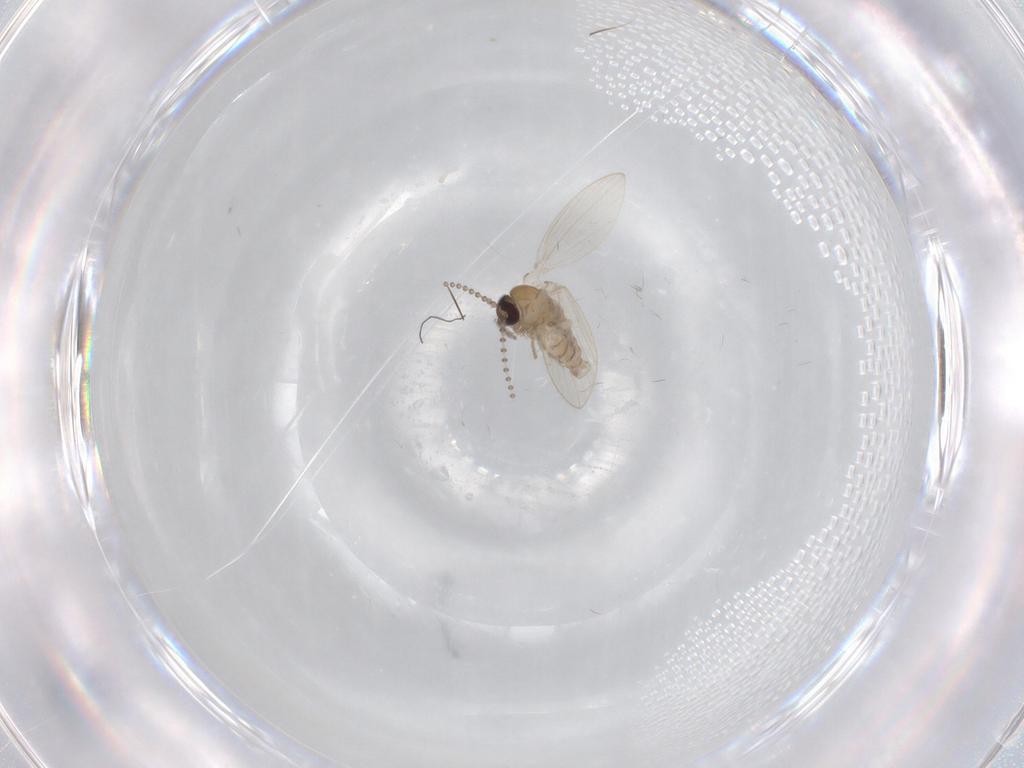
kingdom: Animalia
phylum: Arthropoda
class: Insecta
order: Diptera
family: Psychodidae
